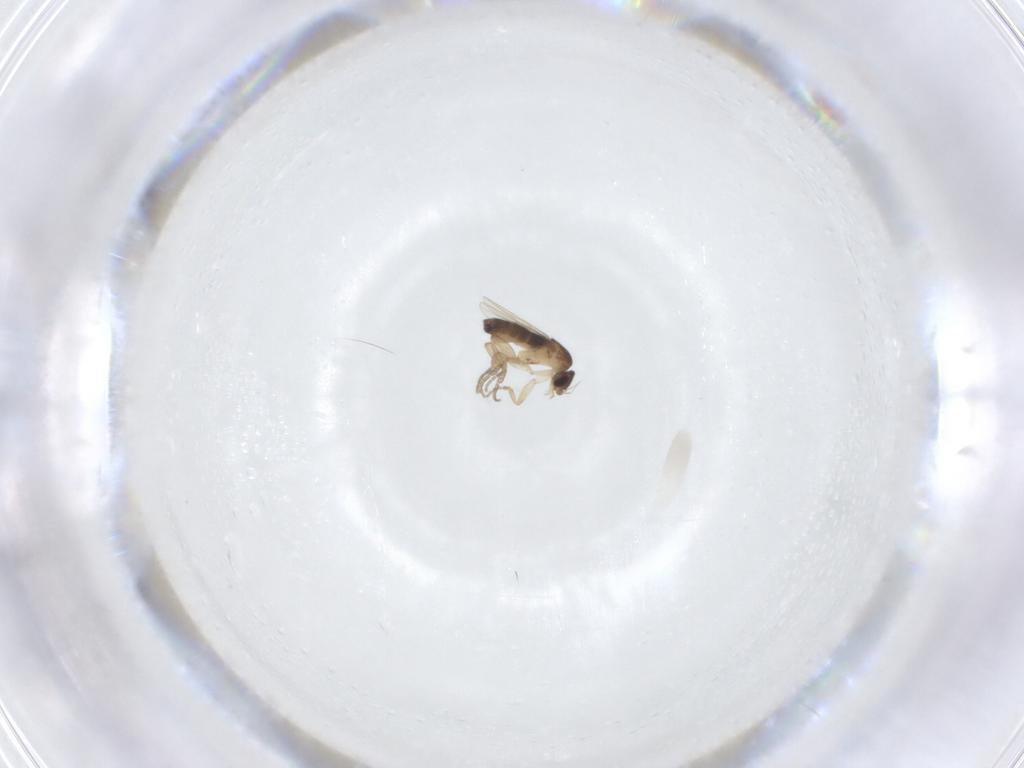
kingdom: Animalia
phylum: Arthropoda
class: Insecta
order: Diptera
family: Phoridae
